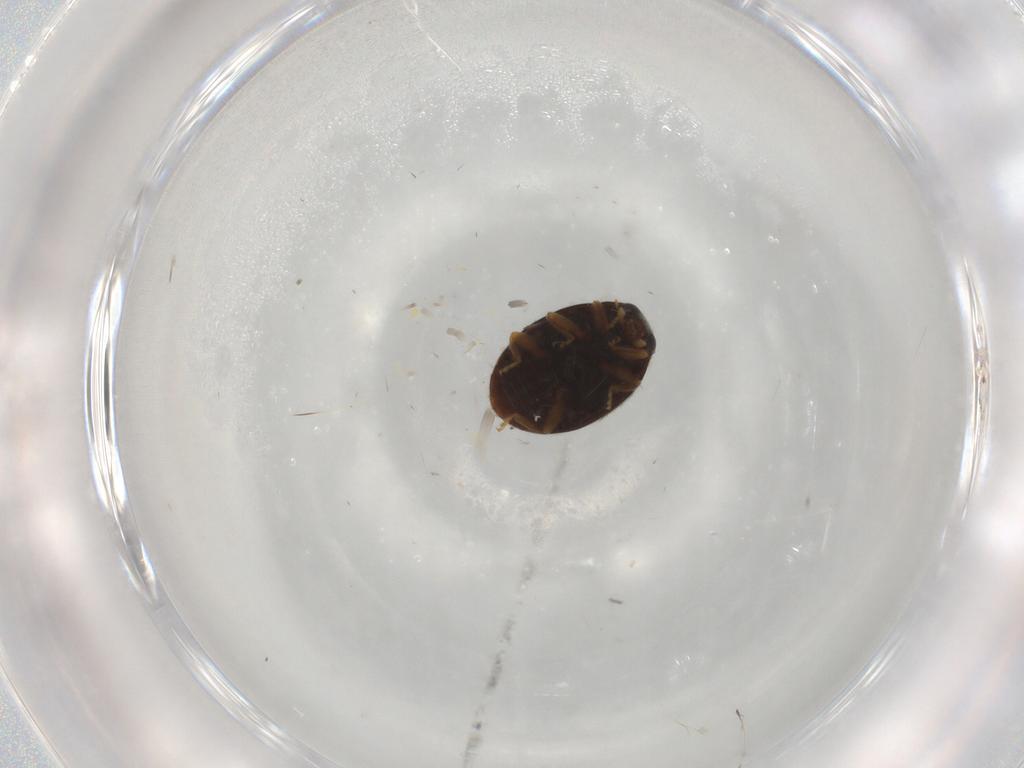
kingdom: Animalia
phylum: Arthropoda
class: Insecta
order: Coleoptera
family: Coccinellidae
